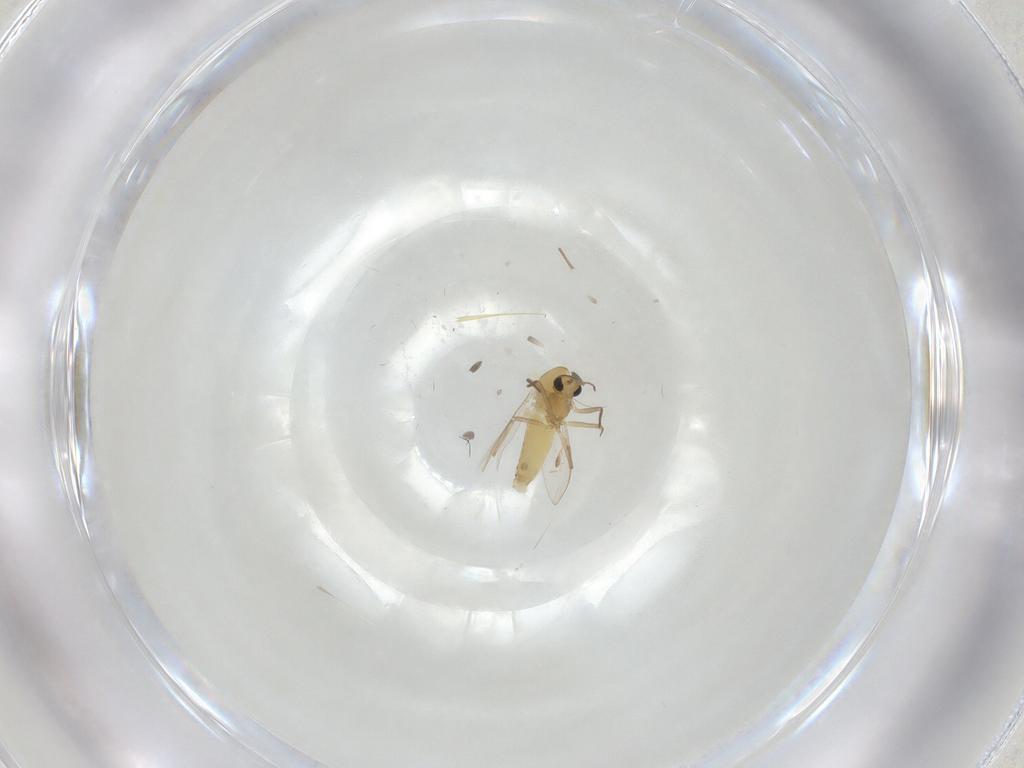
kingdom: Animalia
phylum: Arthropoda
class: Insecta
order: Diptera
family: Chironomidae
